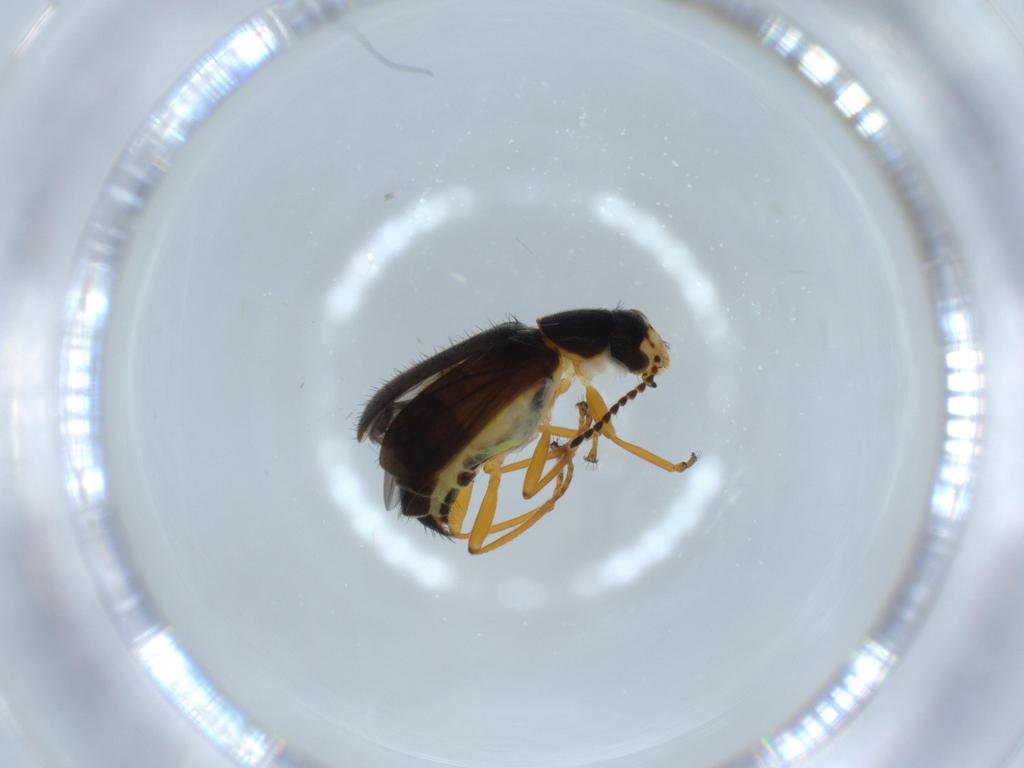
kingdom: Animalia
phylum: Arthropoda
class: Insecta
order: Coleoptera
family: Melyridae
